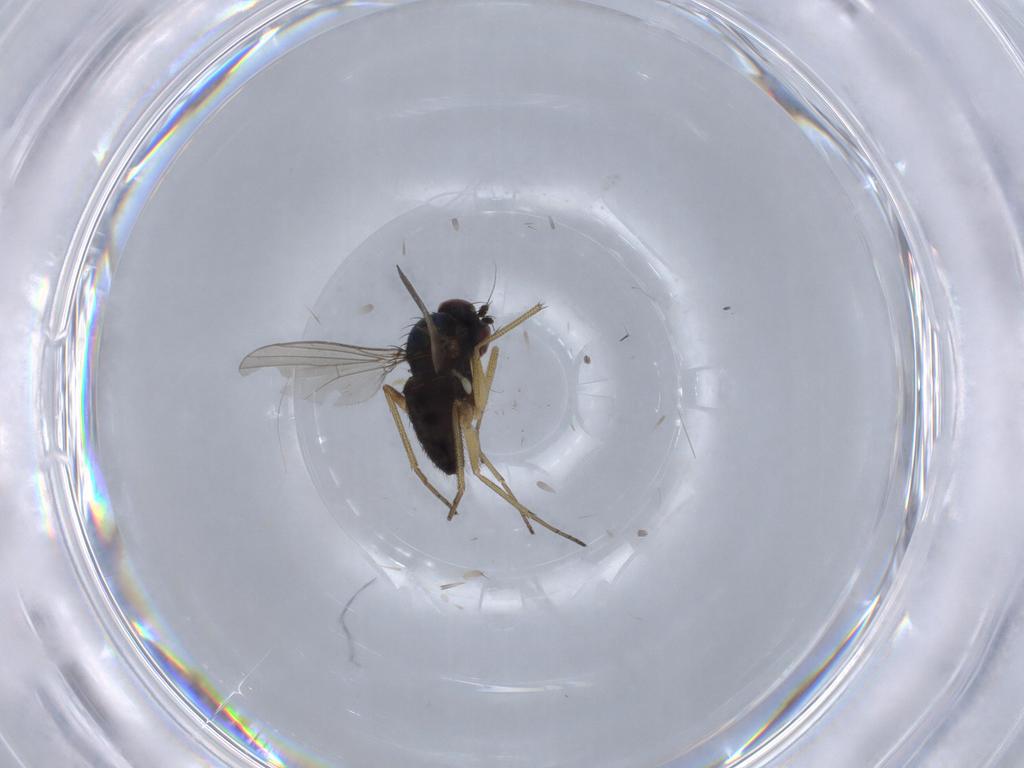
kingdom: Animalia
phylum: Arthropoda
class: Insecta
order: Diptera
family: Dolichopodidae
